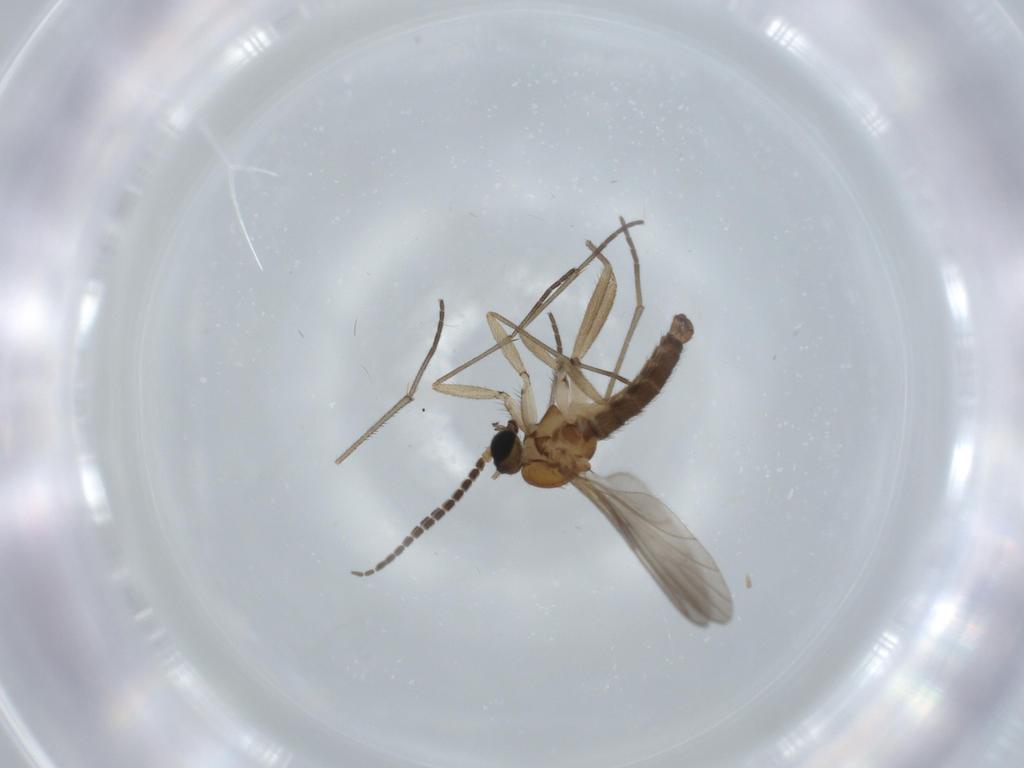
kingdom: Animalia
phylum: Arthropoda
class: Insecta
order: Diptera
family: Sciaridae
